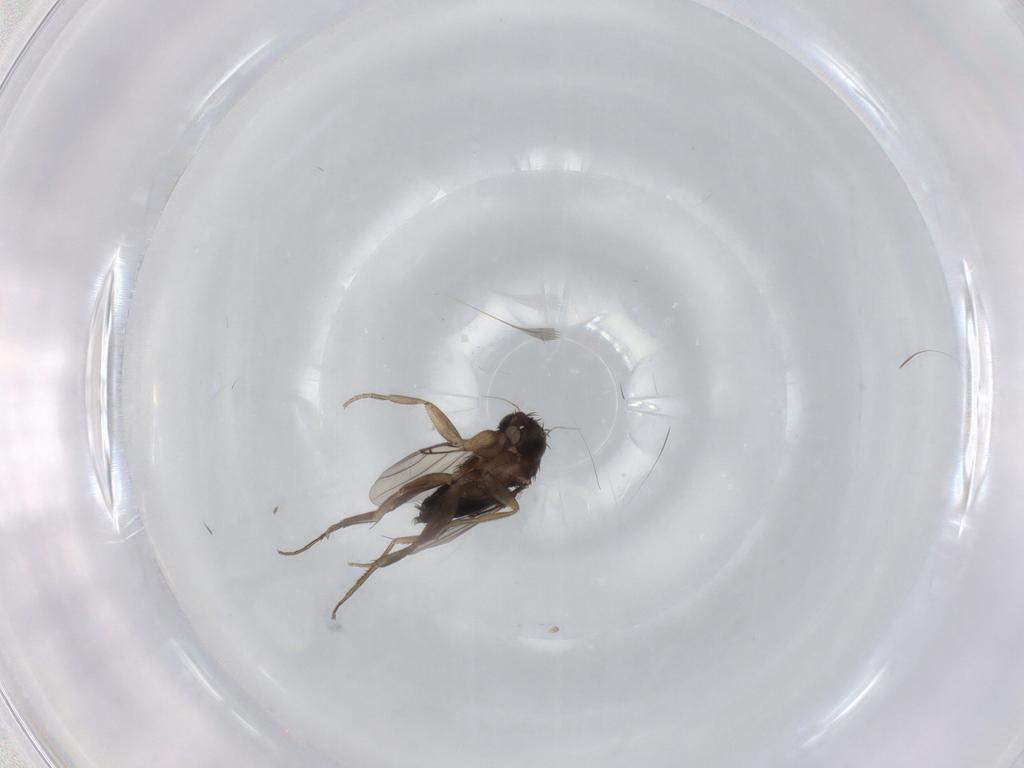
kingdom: Animalia
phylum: Arthropoda
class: Insecta
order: Diptera
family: Phoridae
